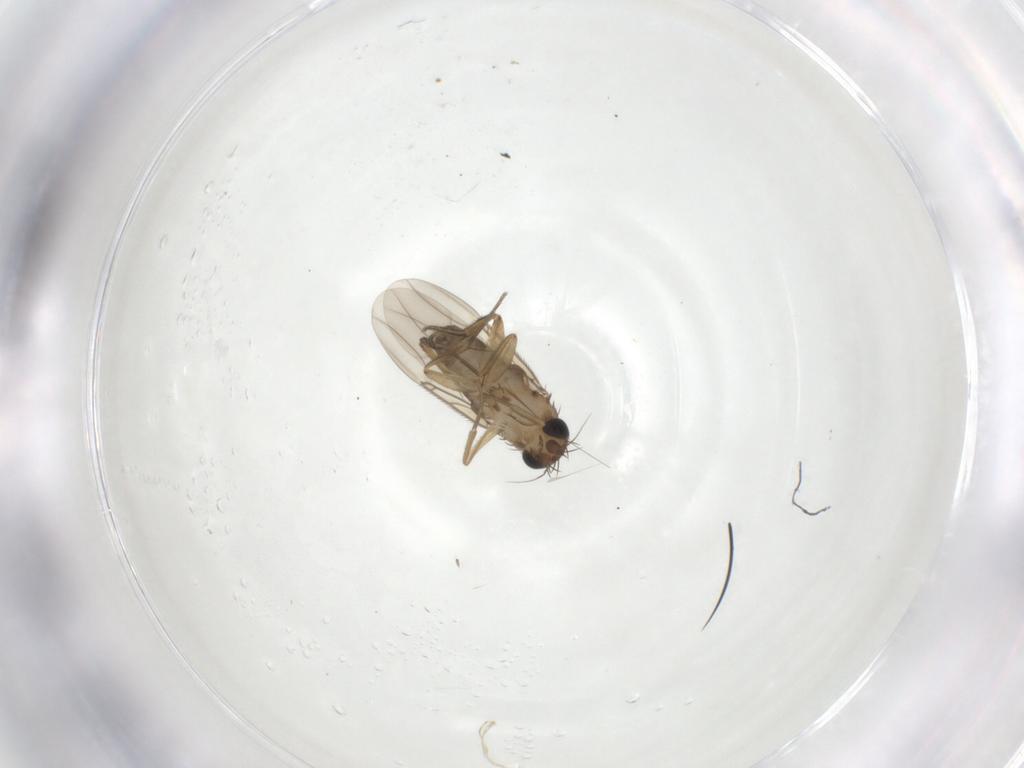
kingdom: Animalia
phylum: Arthropoda
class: Insecta
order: Diptera
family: Phoridae
